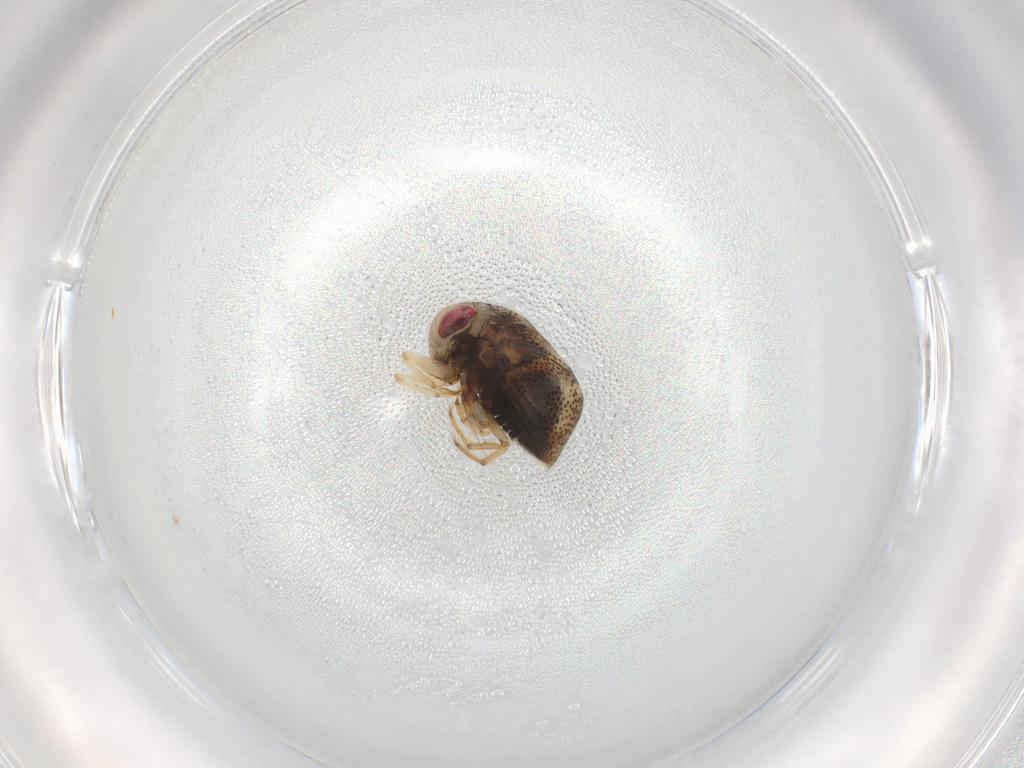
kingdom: Animalia
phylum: Arthropoda
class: Insecta
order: Hemiptera
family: Pleidae
